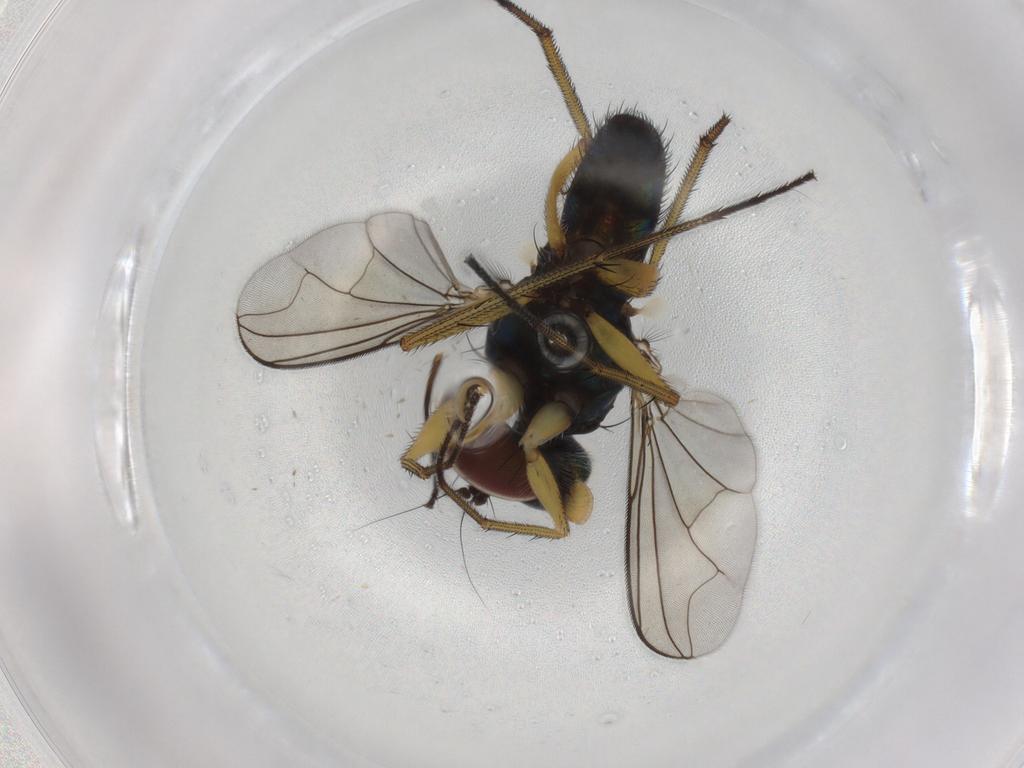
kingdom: Animalia
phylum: Arthropoda
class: Insecta
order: Diptera
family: Dolichopodidae
